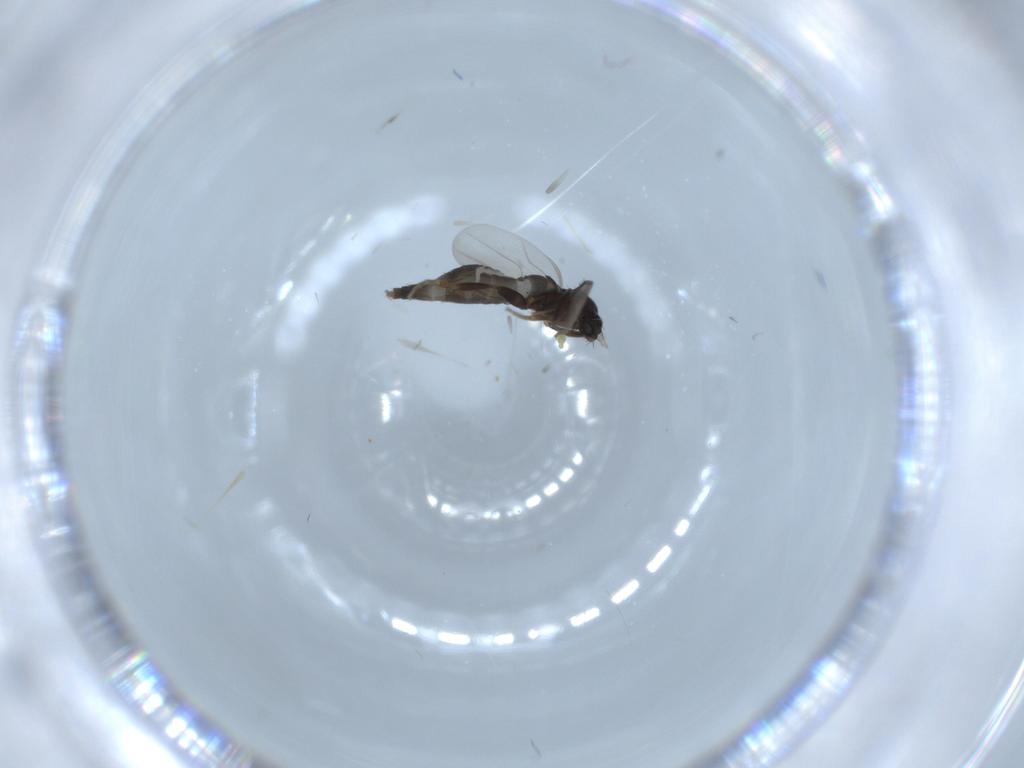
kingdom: Animalia
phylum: Arthropoda
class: Insecta
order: Diptera
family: Phoridae
